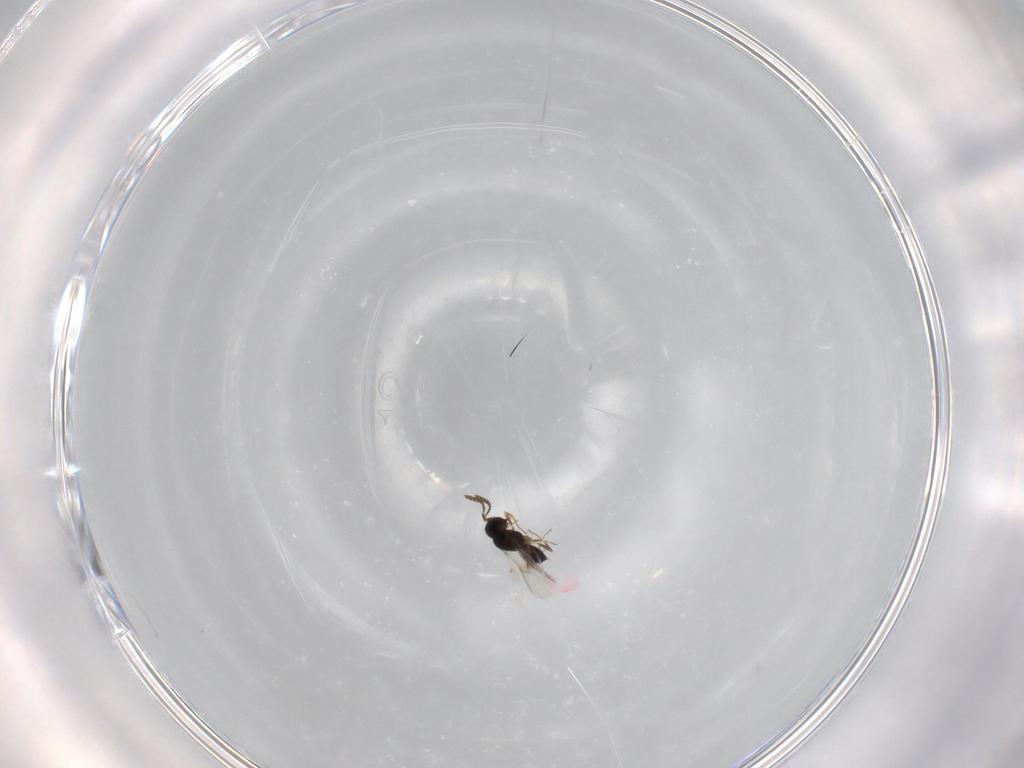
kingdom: Animalia
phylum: Arthropoda
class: Insecta
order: Hymenoptera
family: Scelionidae
